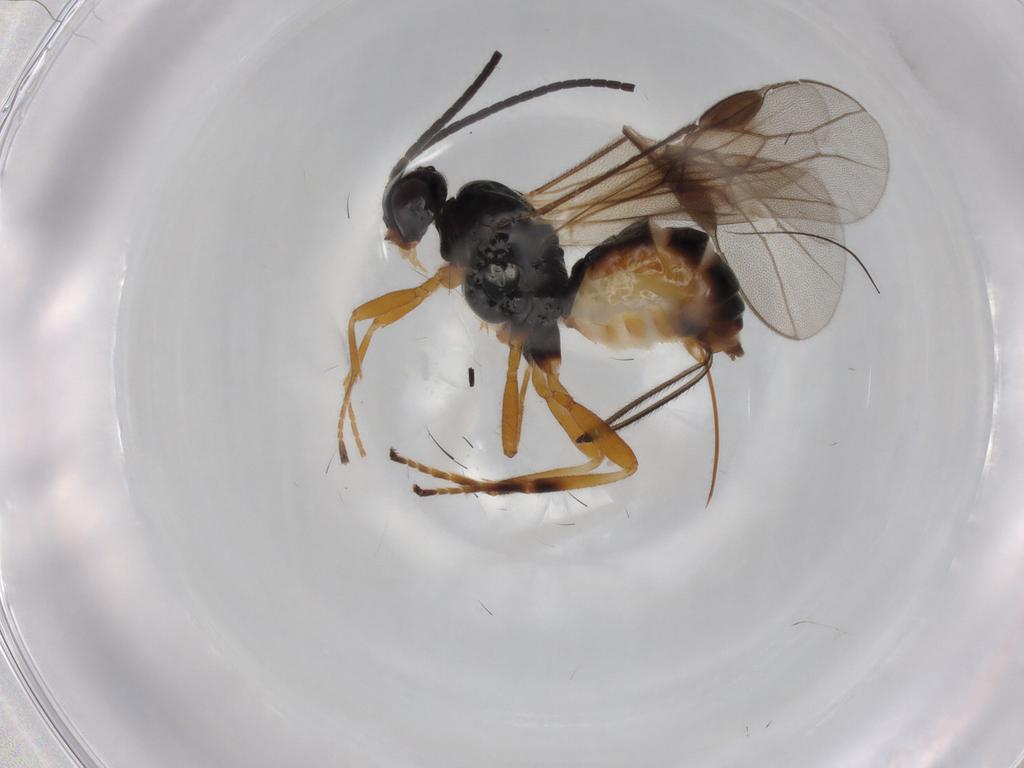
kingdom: Animalia
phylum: Arthropoda
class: Insecta
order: Hymenoptera
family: Braconidae
